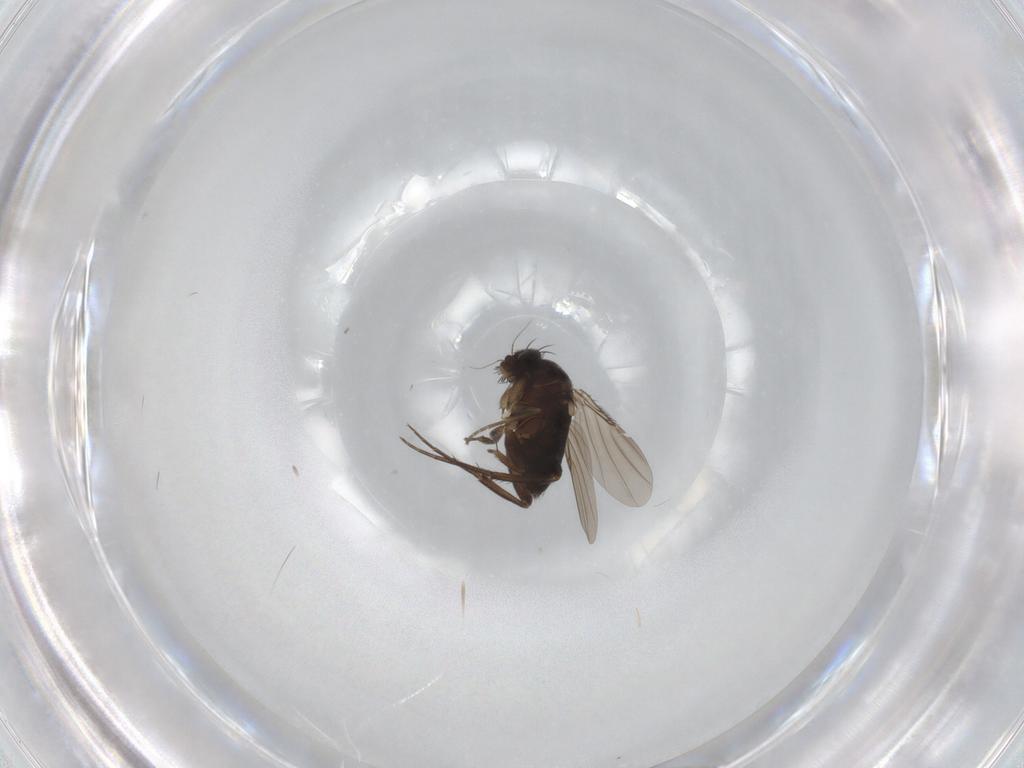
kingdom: Animalia
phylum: Arthropoda
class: Insecta
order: Diptera
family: Phoridae
